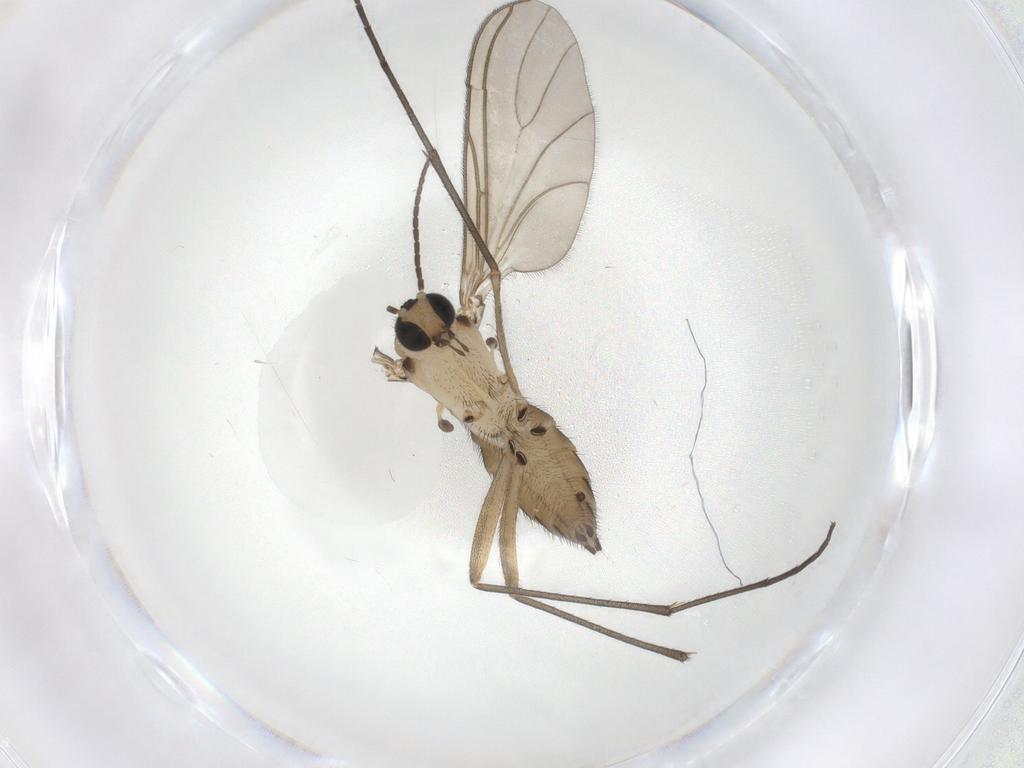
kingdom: Animalia
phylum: Arthropoda
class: Insecta
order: Diptera
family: Sciaridae
